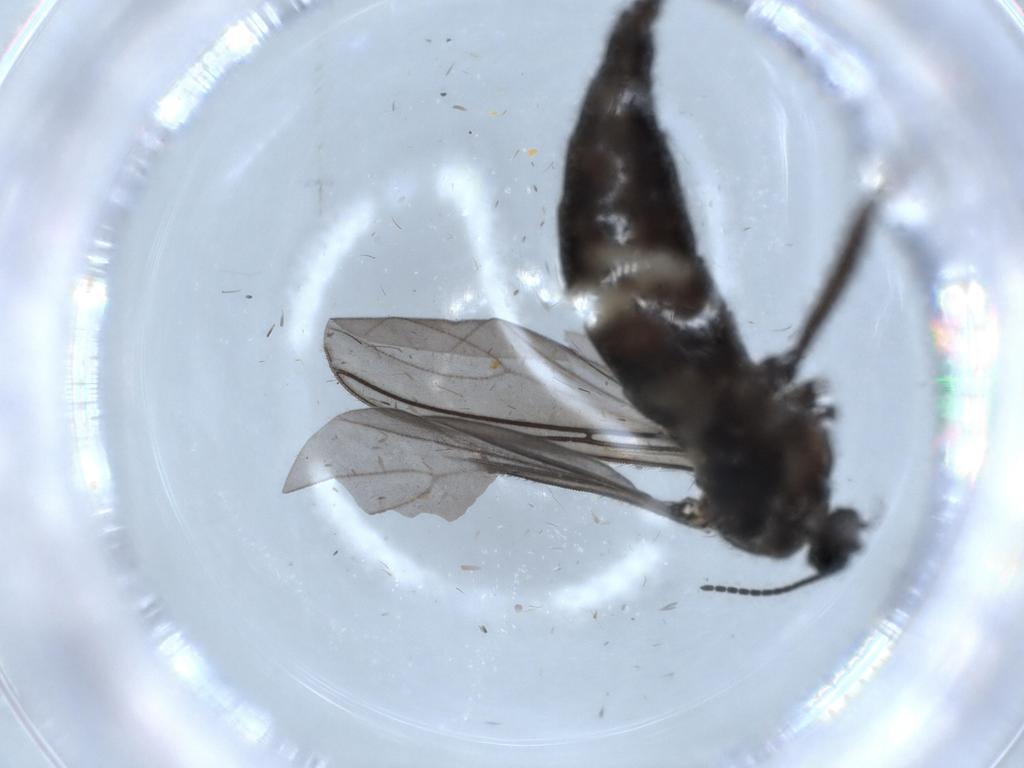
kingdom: Animalia
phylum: Arthropoda
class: Insecta
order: Diptera
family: Sciaridae
